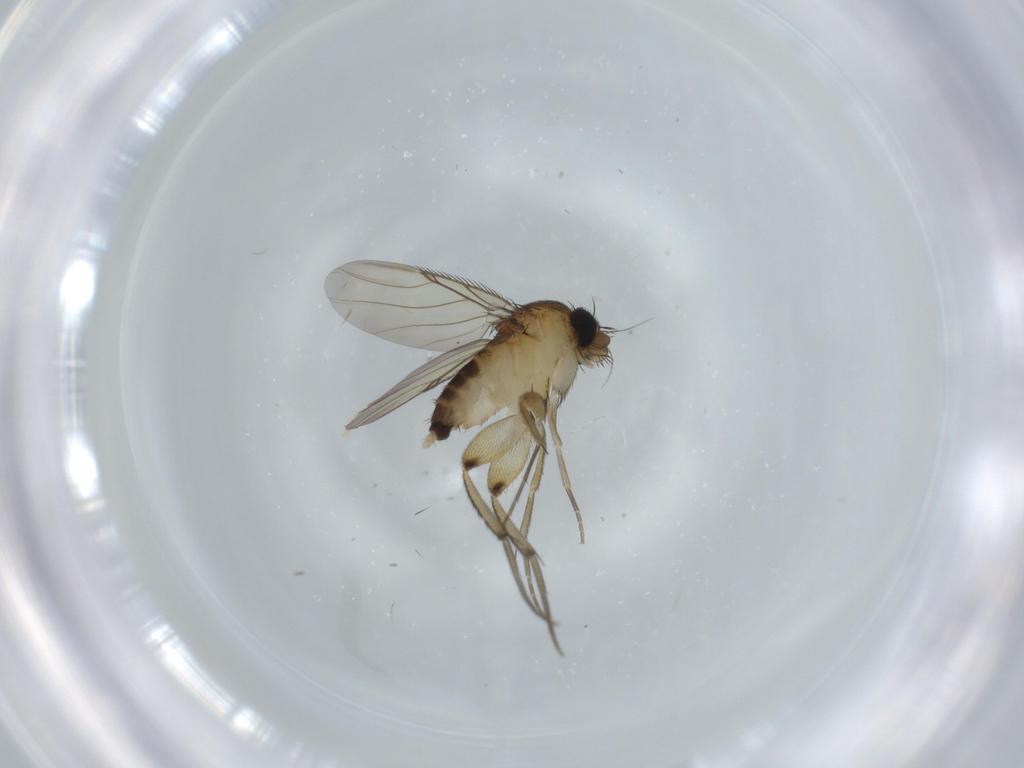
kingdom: Animalia
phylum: Arthropoda
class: Insecta
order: Diptera
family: Phoridae
